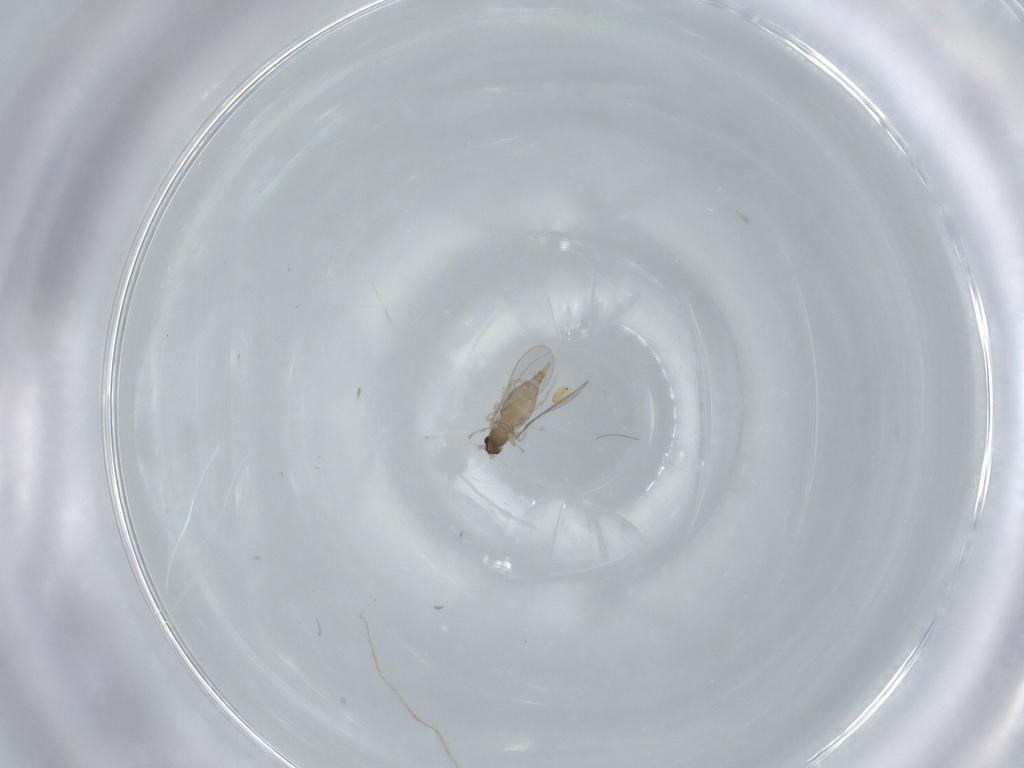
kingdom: Animalia
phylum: Arthropoda
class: Insecta
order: Diptera
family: Cecidomyiidae
